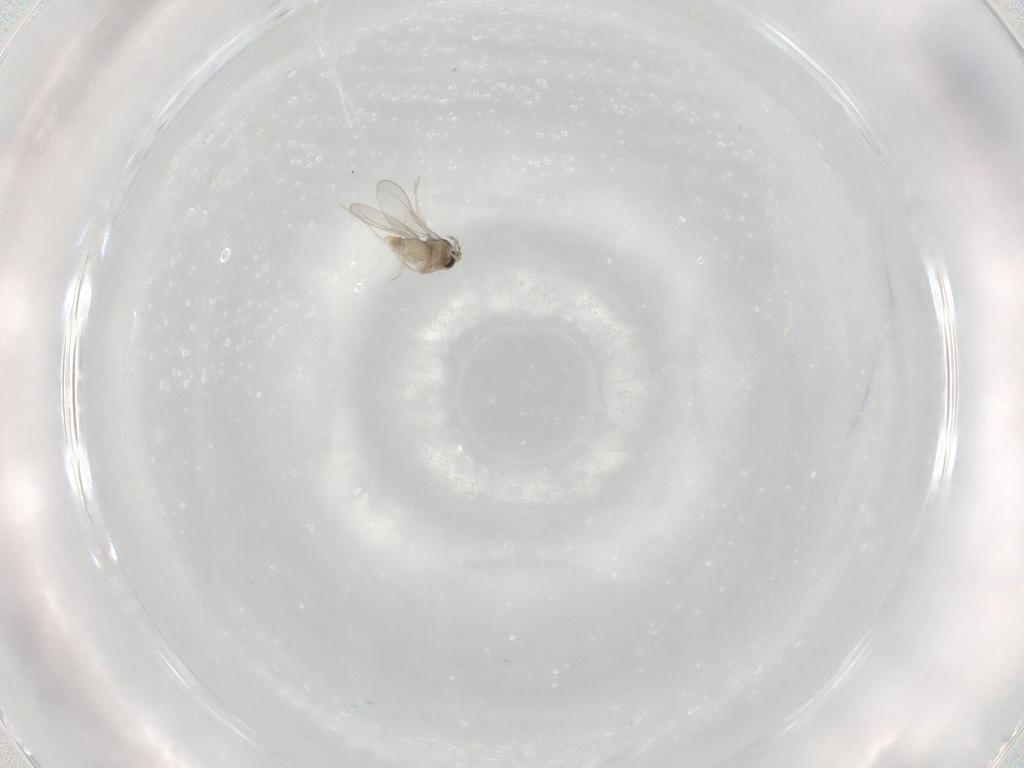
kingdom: Animalia
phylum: Arthropoda
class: Insecta
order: Diptera
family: Cecidomyiidae
